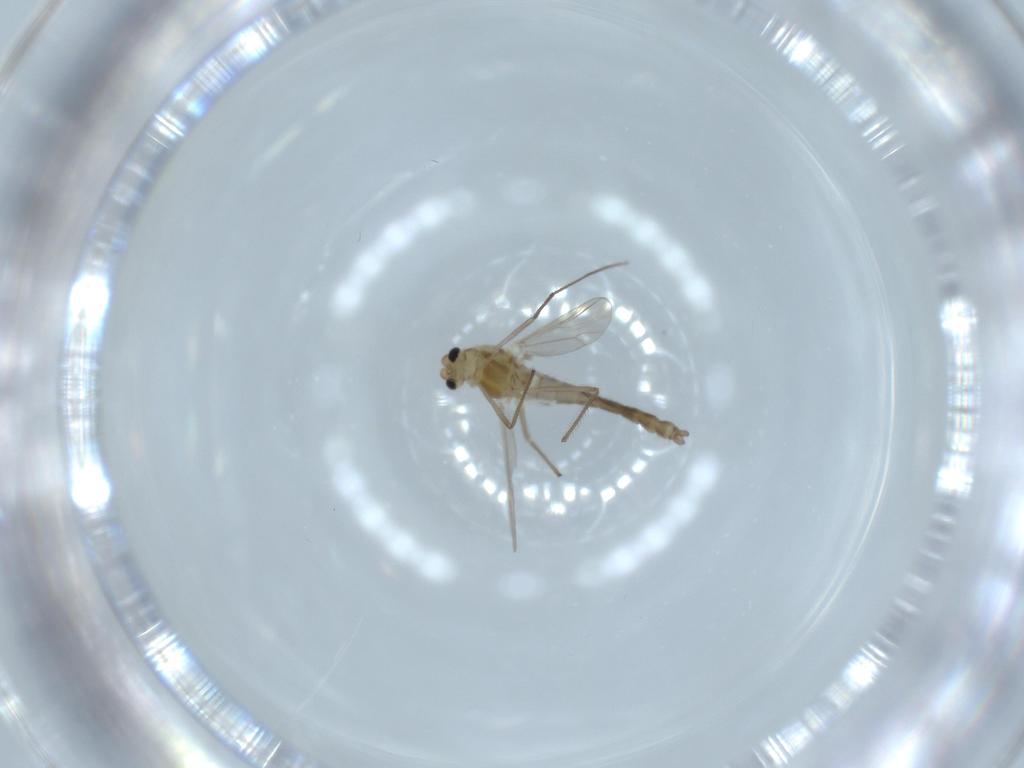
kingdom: Animalia
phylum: Arthropoda
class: Insecta
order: Diptera
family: Chironomidae
